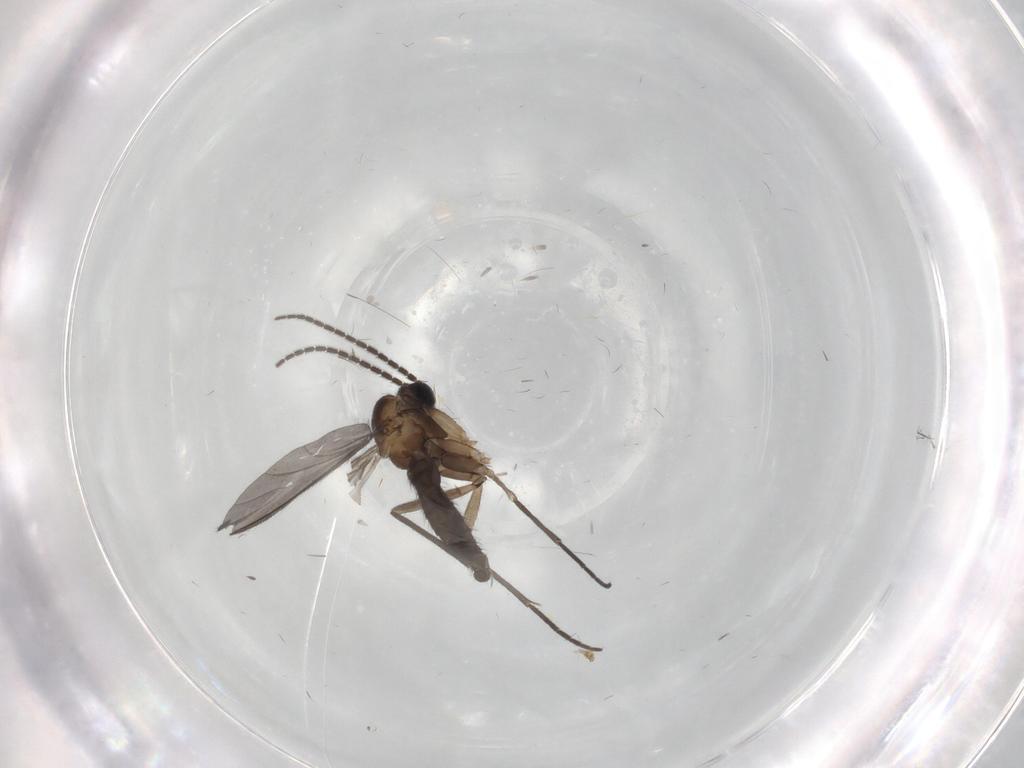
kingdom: Animalia
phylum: Arthropoda
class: Insecta
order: Diptera
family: Sciaridae
